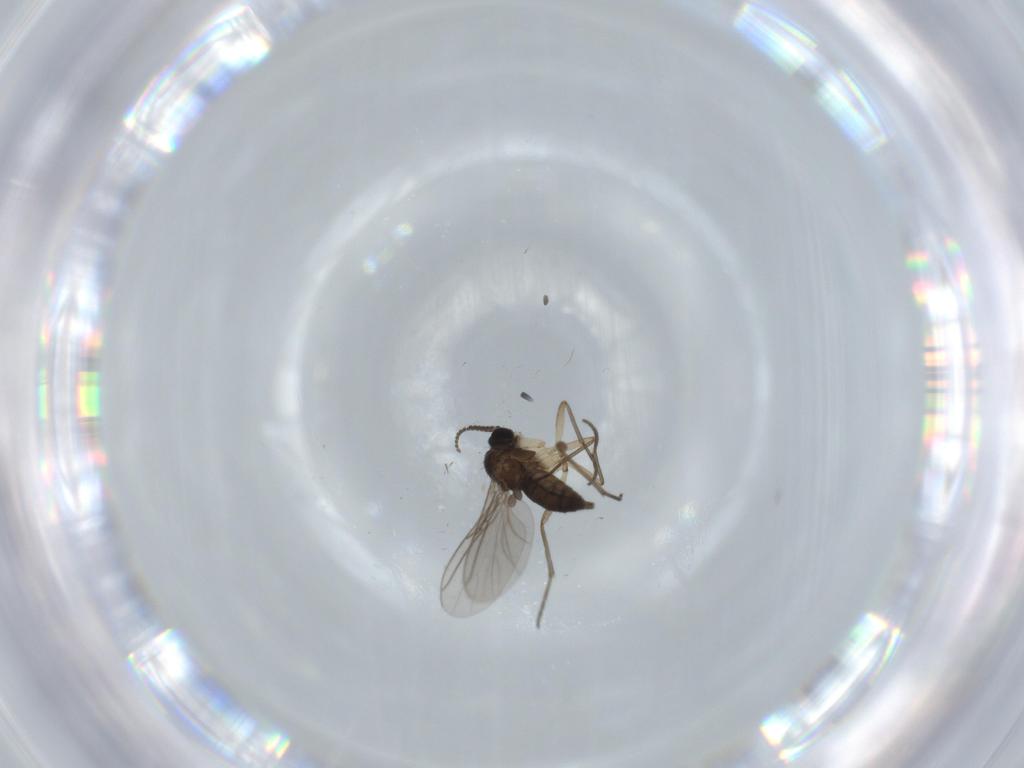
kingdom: Animalia
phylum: Arthropoda
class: Insecta
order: Diptera
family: Sciaridae
